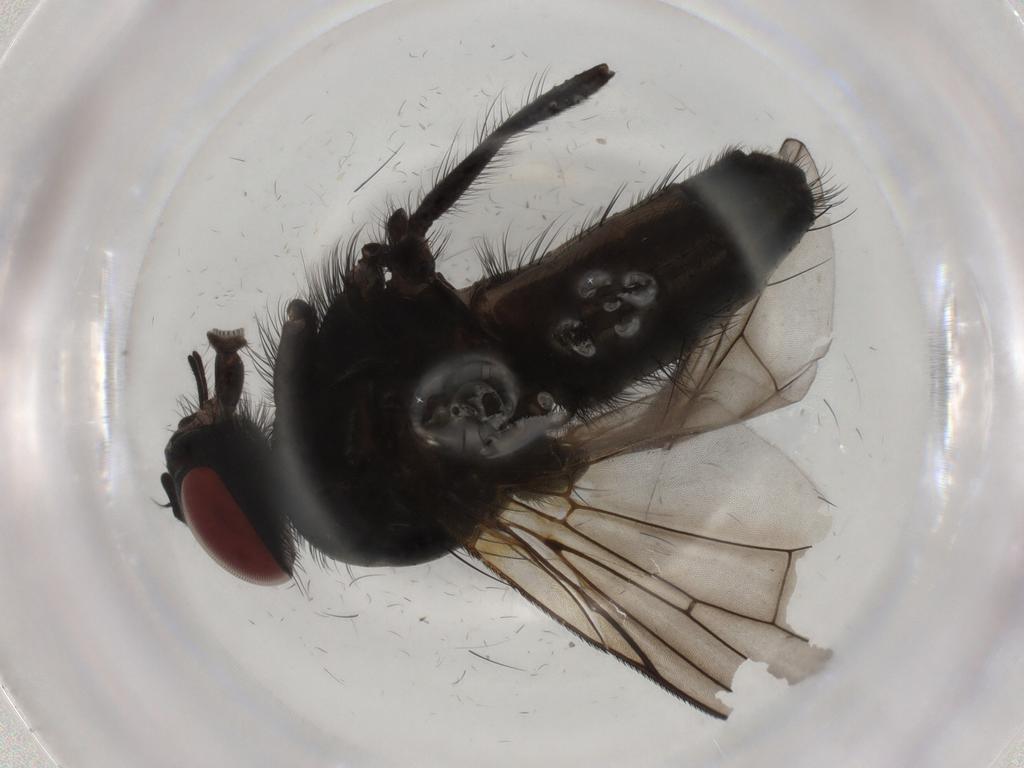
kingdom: Animalia
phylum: Arthropoda
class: Insecta
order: Diptera
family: Muscidae
